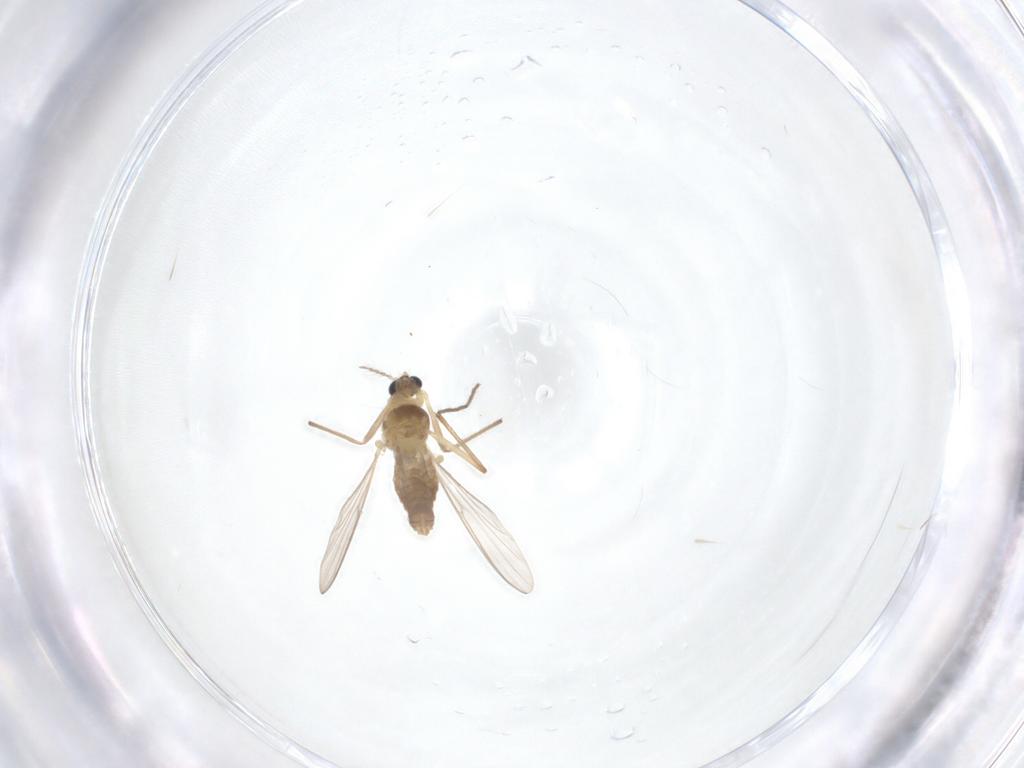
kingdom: Animalia
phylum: Arthropoda
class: Insecta
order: Diptera
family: Chironomidae
